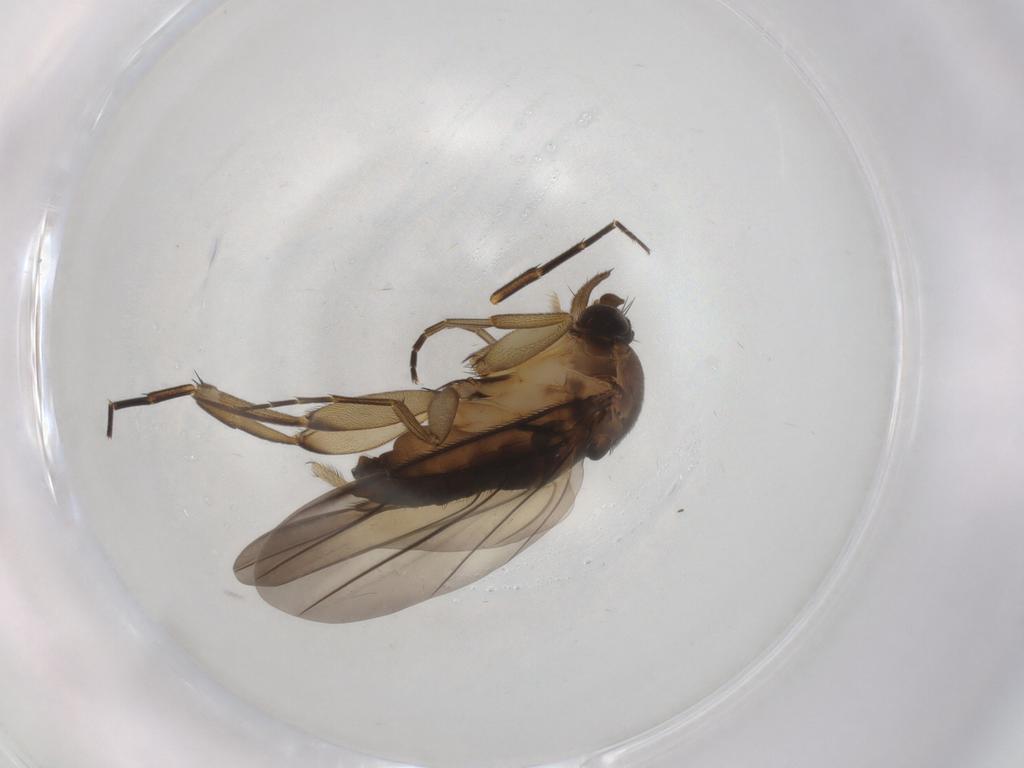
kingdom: Animalia
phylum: Arthropoda
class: Insecta
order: Diptera
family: Phoridae
